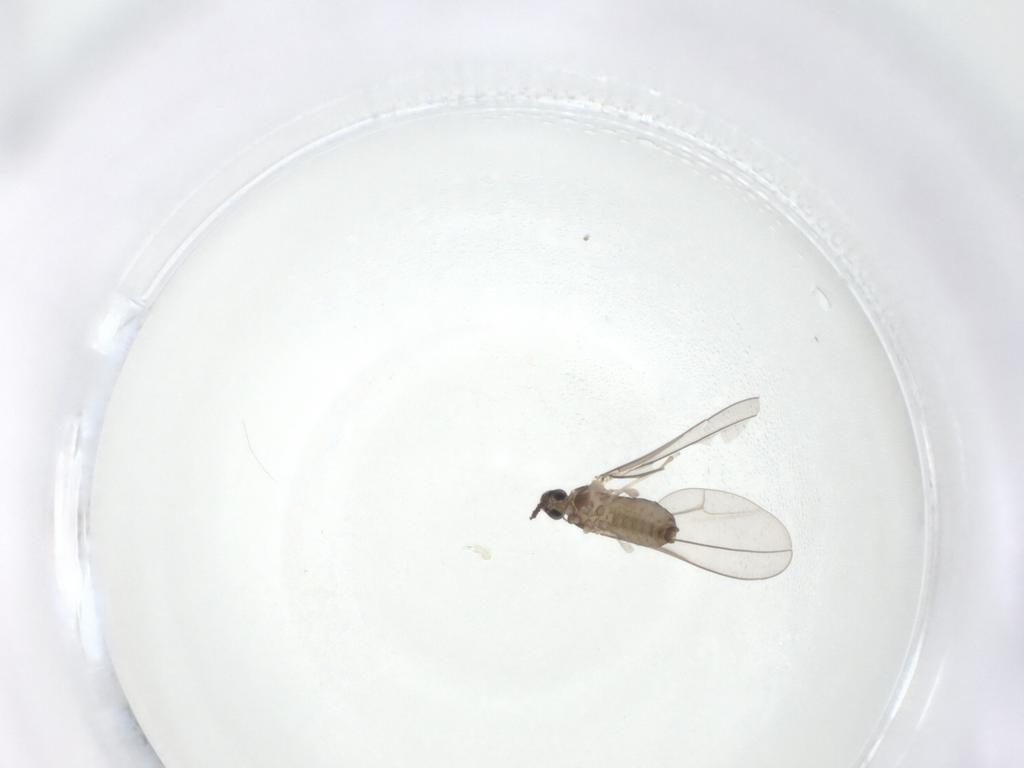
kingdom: Animalia
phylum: Arthropoda
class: Insecta
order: Diptera
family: Cecidomyiidae
